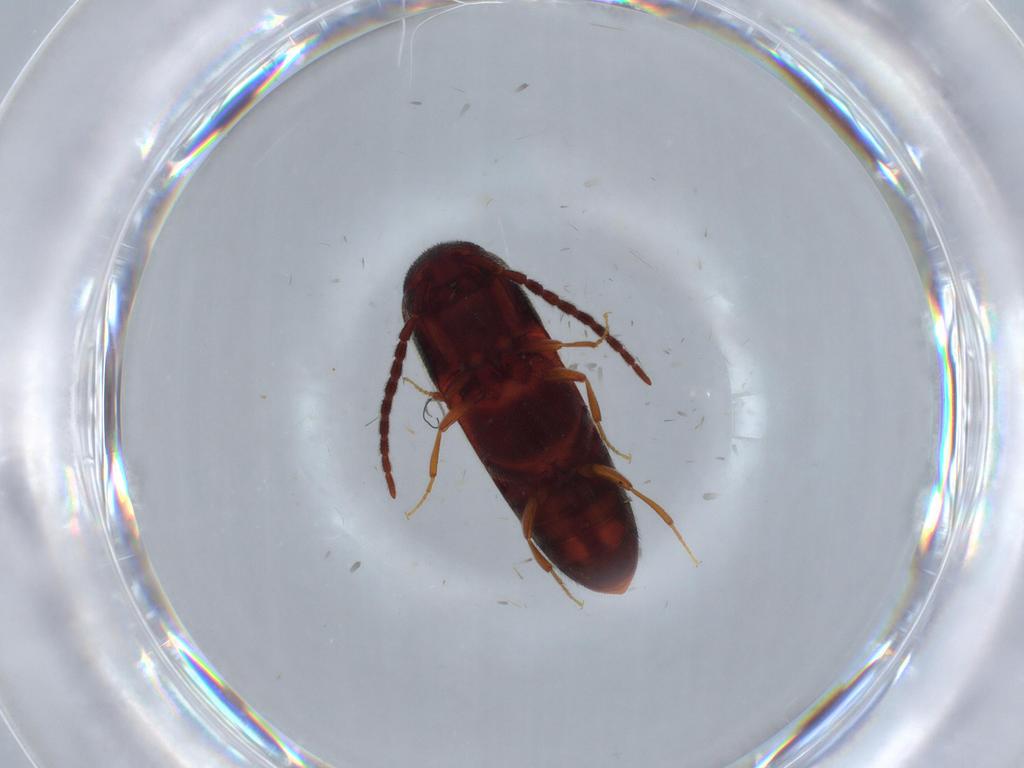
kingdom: Animalia
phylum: Arthropoda
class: Insecta
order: Coleoptera
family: Eucnemidae
